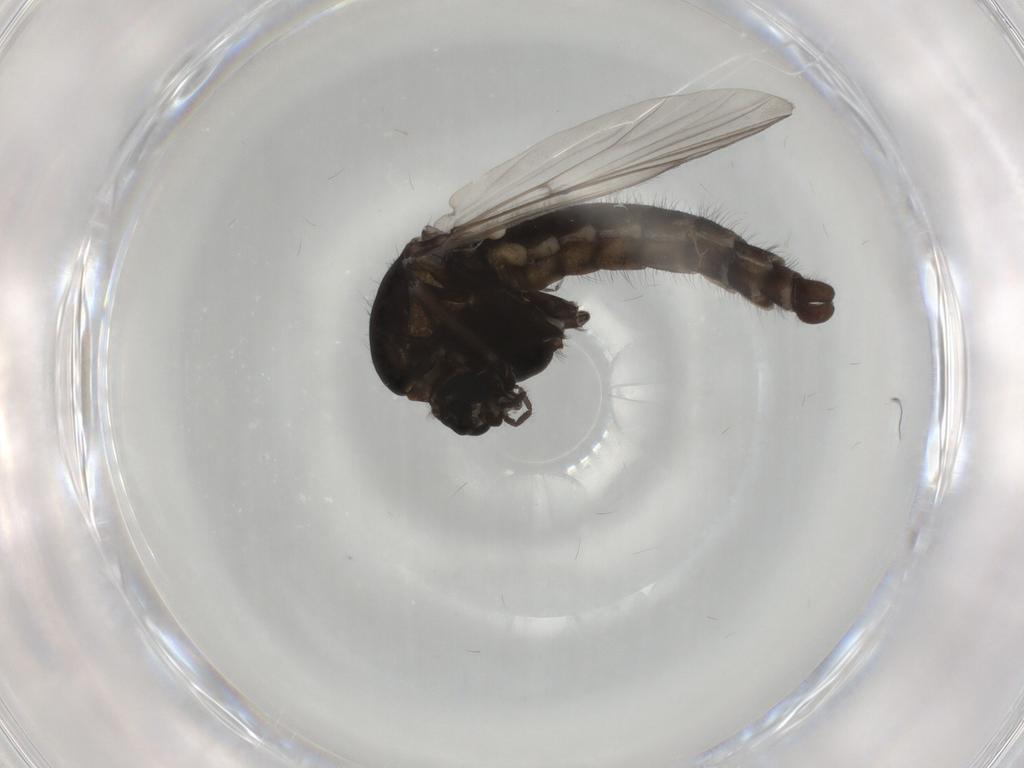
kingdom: Animalia
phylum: Arthropoda
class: Insecta
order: Diptera
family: Chironomidae
